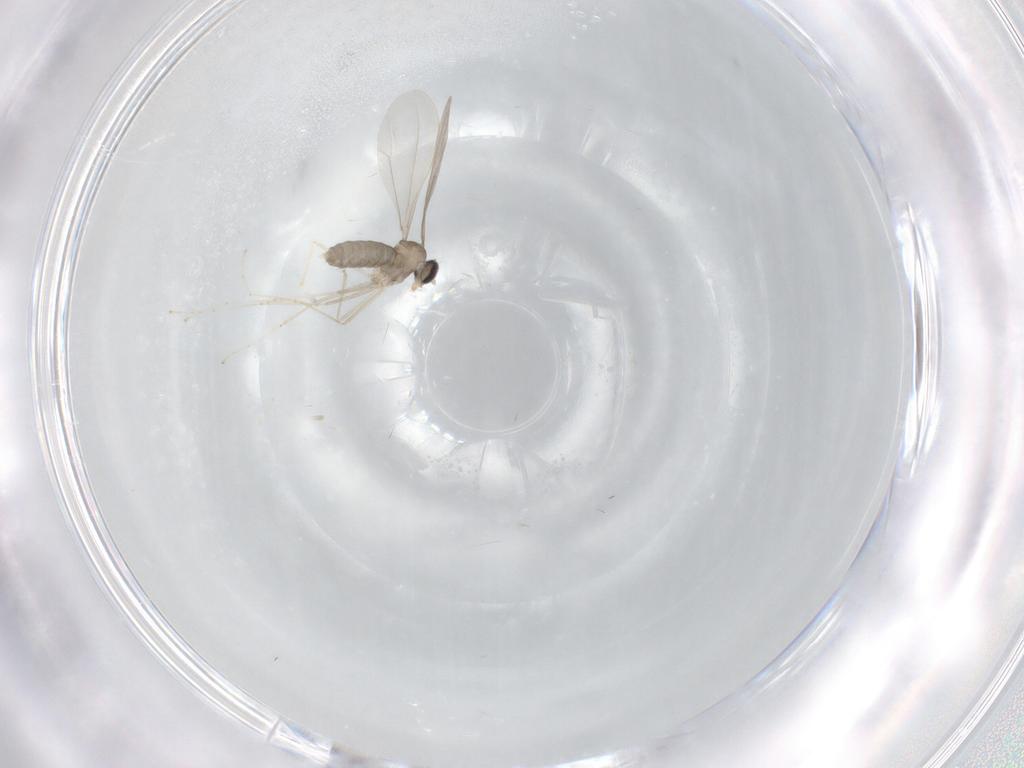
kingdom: Animalia
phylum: Arthropoda
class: Insecta
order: Diptera
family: Cecidomyiidae
